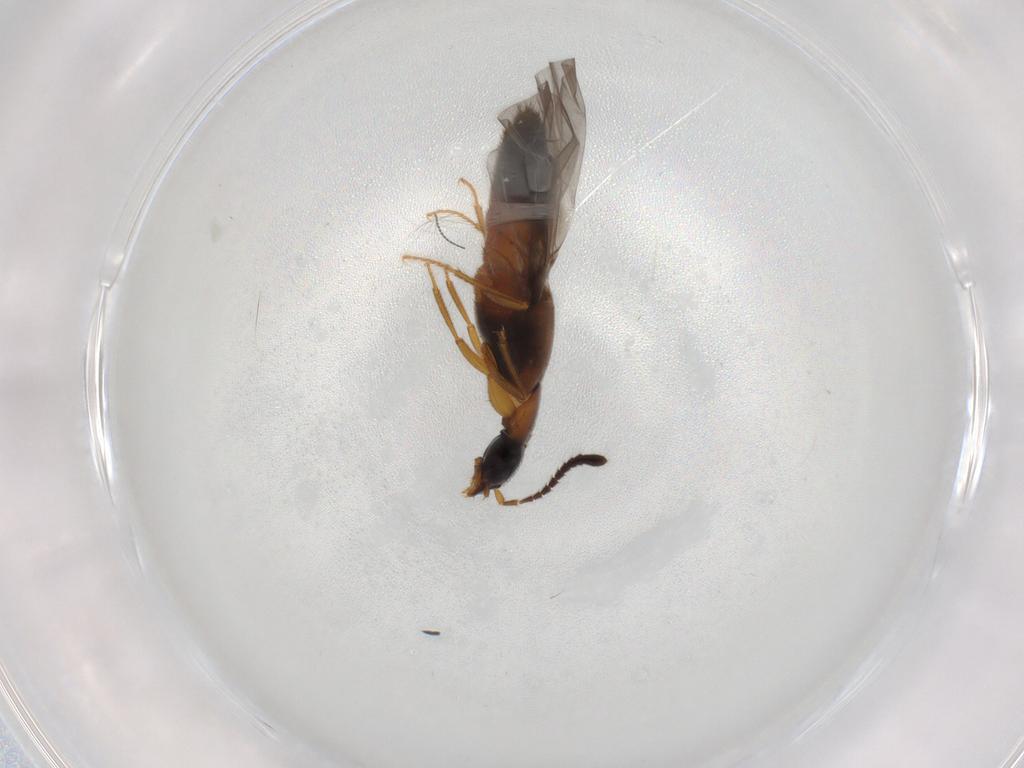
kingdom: Animalia
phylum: Arthropoda
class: Insecta
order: Coleoptera
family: Staphylinidae
